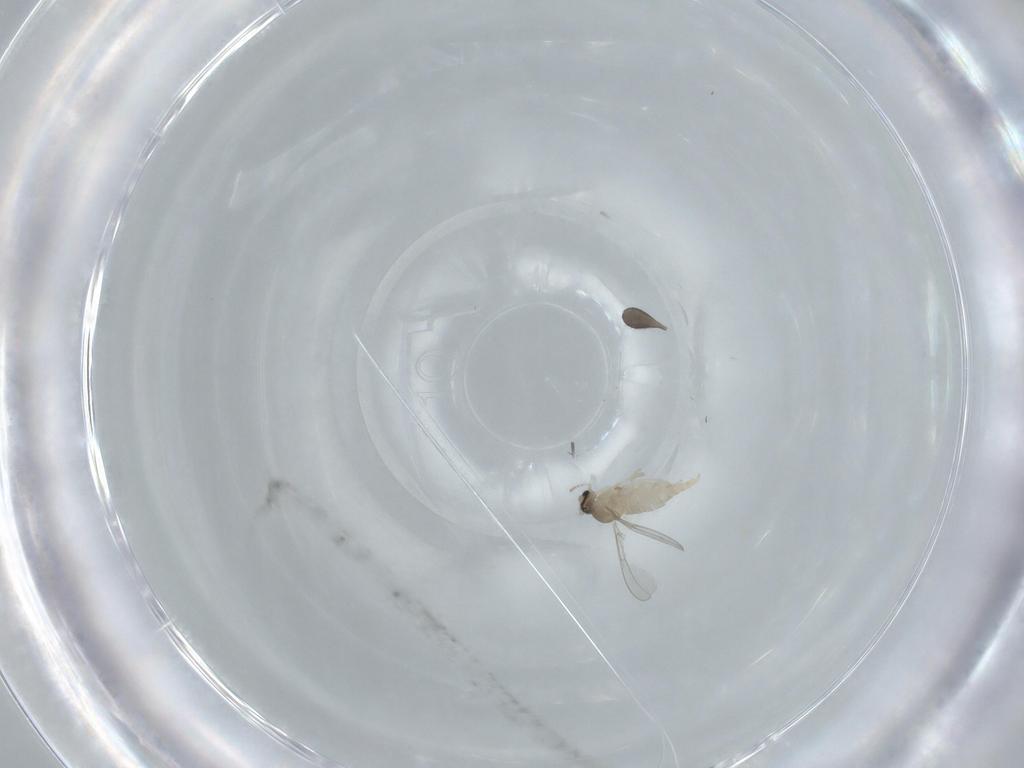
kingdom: Animalia
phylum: Arthropoda
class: Insecta
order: Diptera
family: Cecidomyiidae
